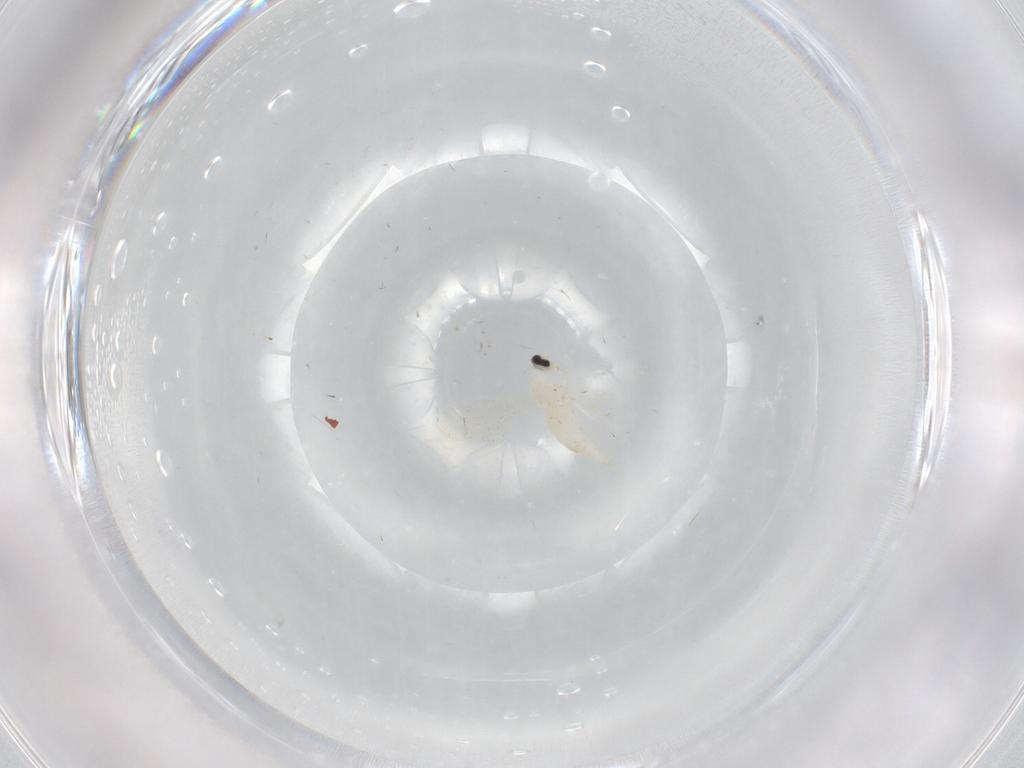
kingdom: Animalia
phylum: Arthropoda
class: Insecta
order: Diptera
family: Cecidomyiidae
